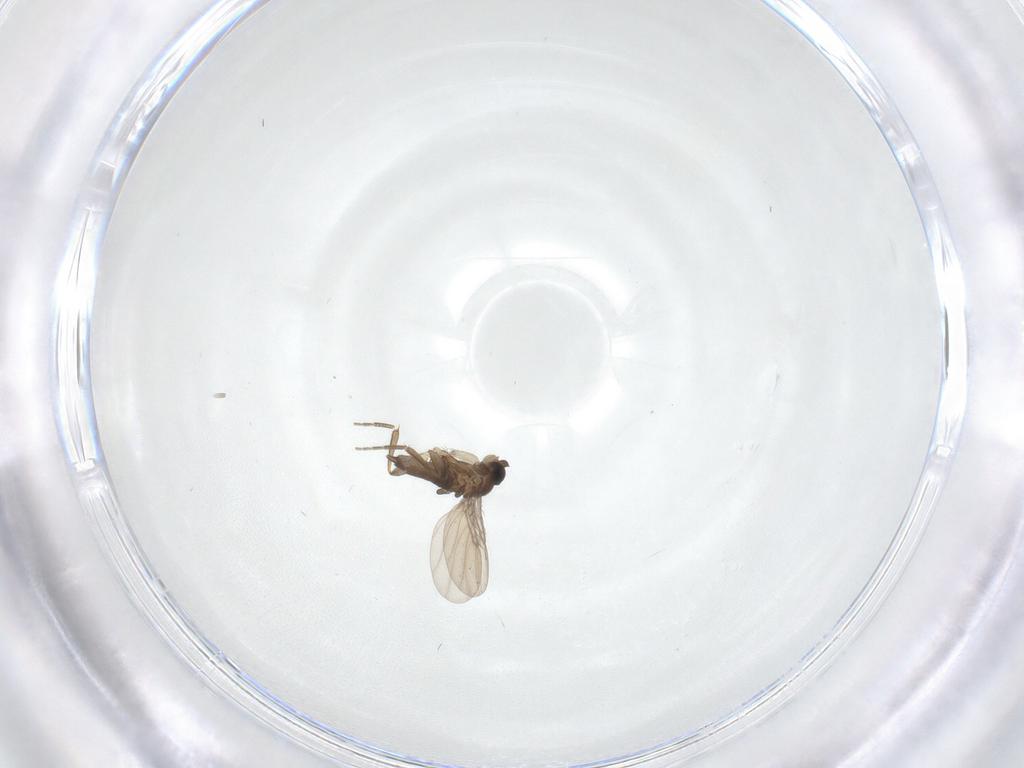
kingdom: Animalia
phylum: Arthropoda
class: Insecta
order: Diptera
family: Phoridae
